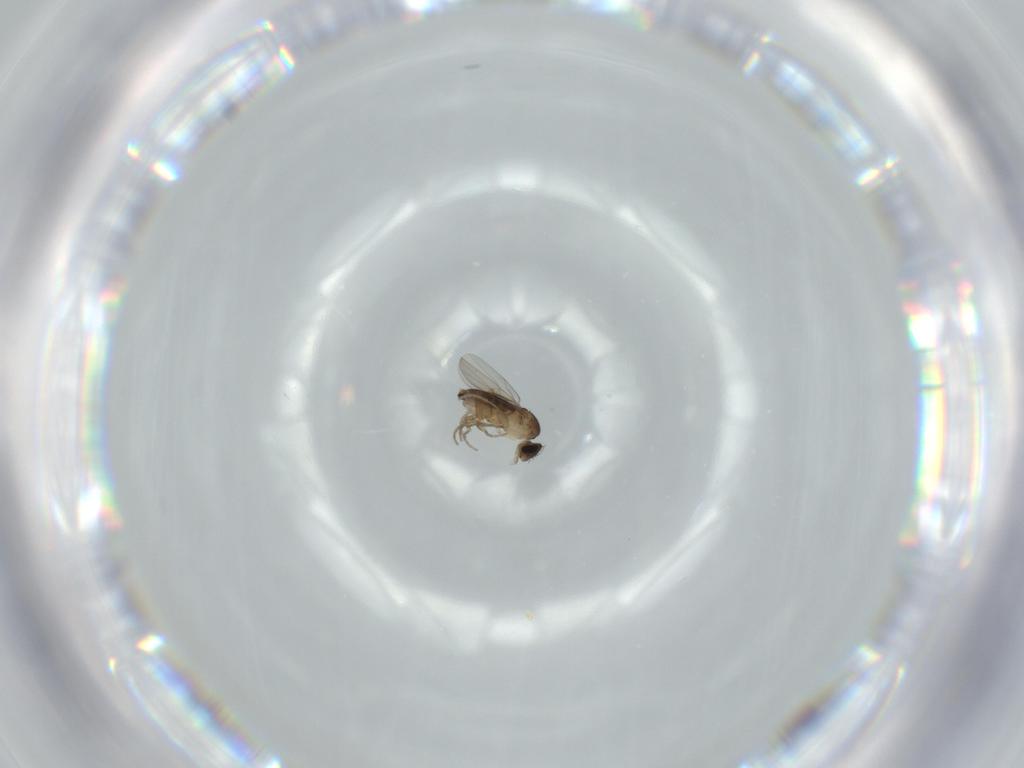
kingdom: Animalia
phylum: Arthropoda
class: Insecta
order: Diptera
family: Phoridae
